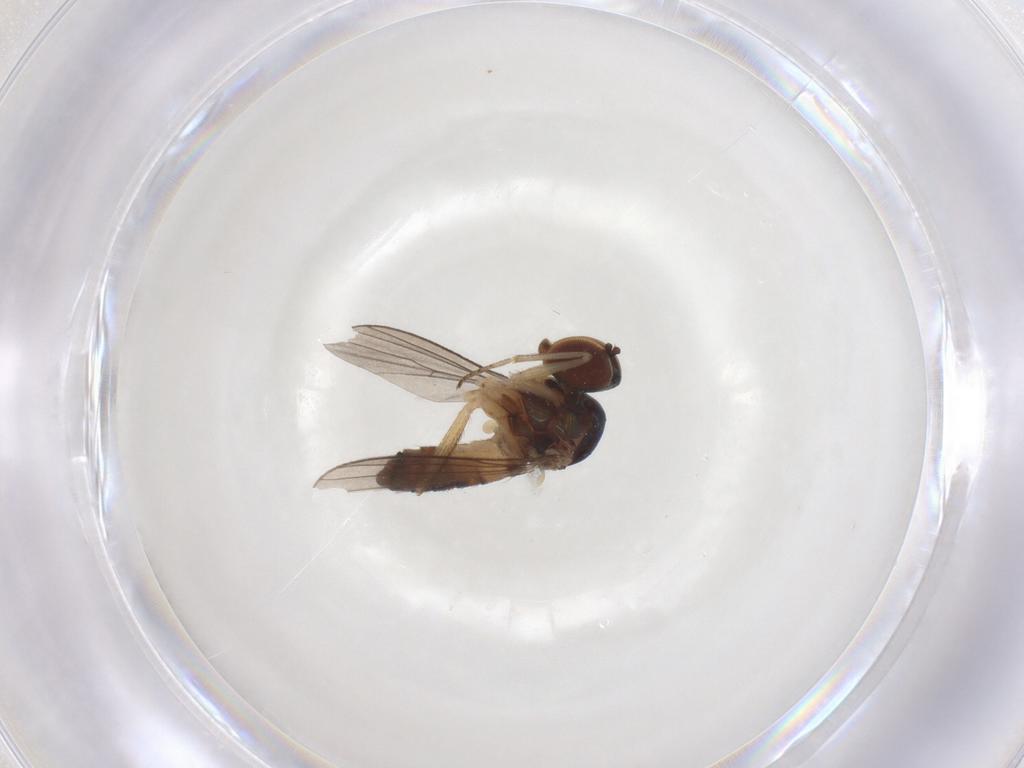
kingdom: Animalia
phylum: Arthropoda
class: Insecta
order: Diptera
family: Dolichopodidae
